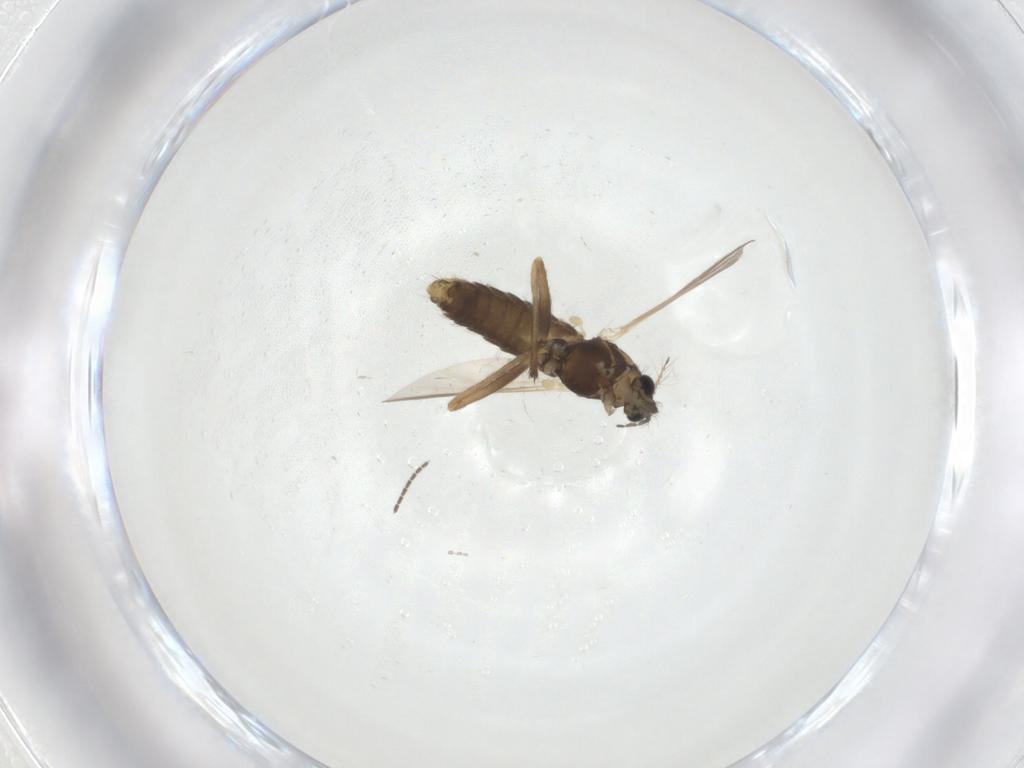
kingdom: Animalia
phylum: Arthropoda
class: Insecta
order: Diptera
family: Chironomidae
